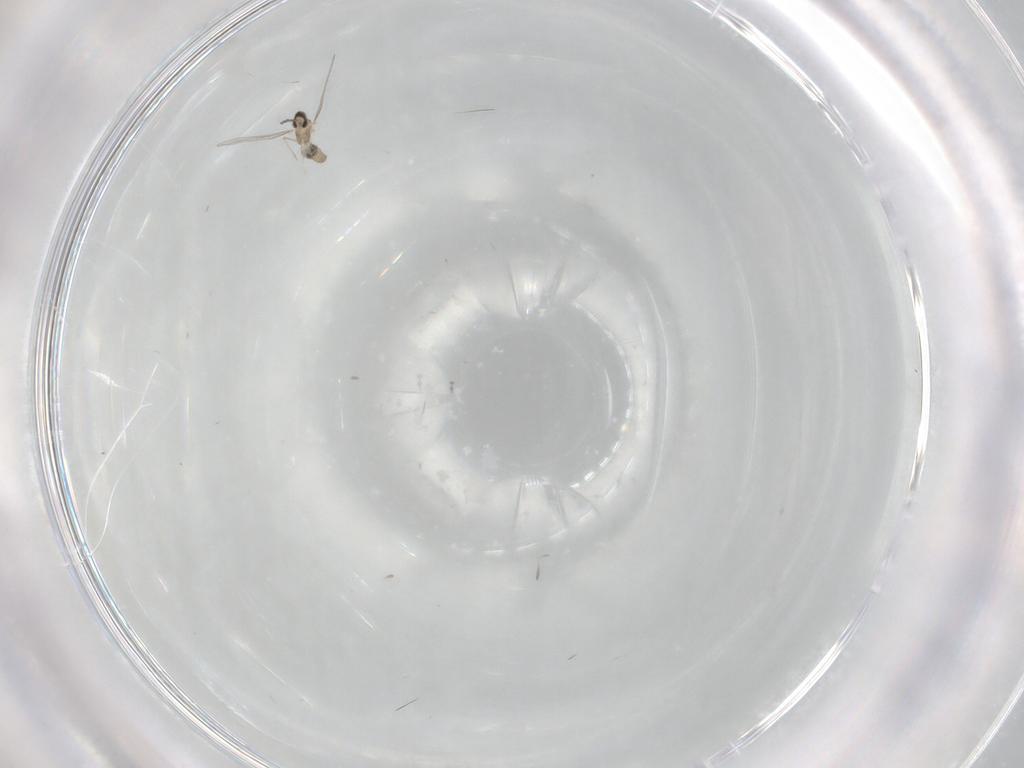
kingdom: Animalia
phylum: Arthropoda
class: Insecta
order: Diptera
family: Cecidomyiidae
